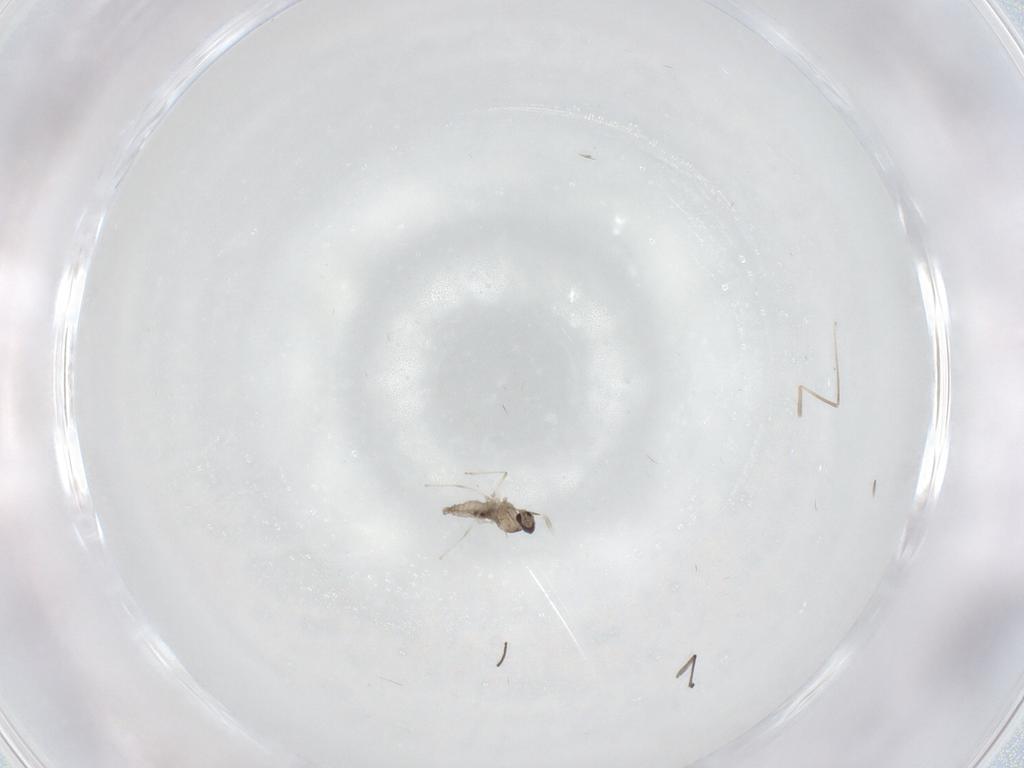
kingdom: Animalia
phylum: Arthropoda
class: Insecta
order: Diptera
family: Cecidomyiidae
